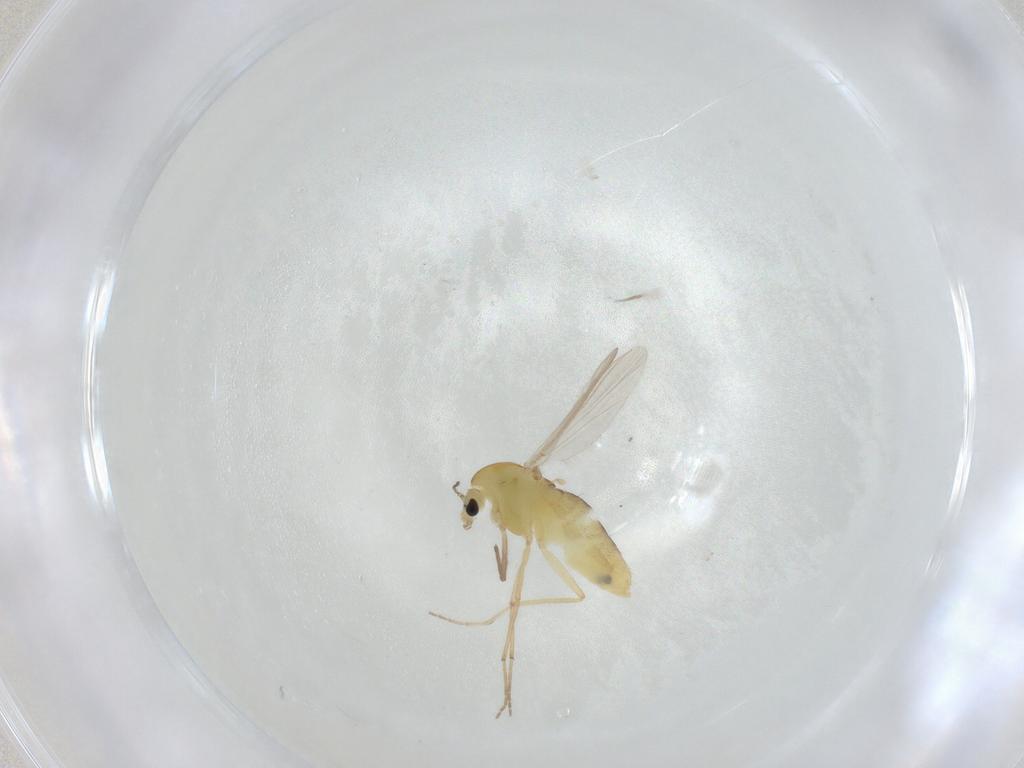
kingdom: Animalia
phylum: Arthropoda
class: Insecta
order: Diptera
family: Chironomidae
